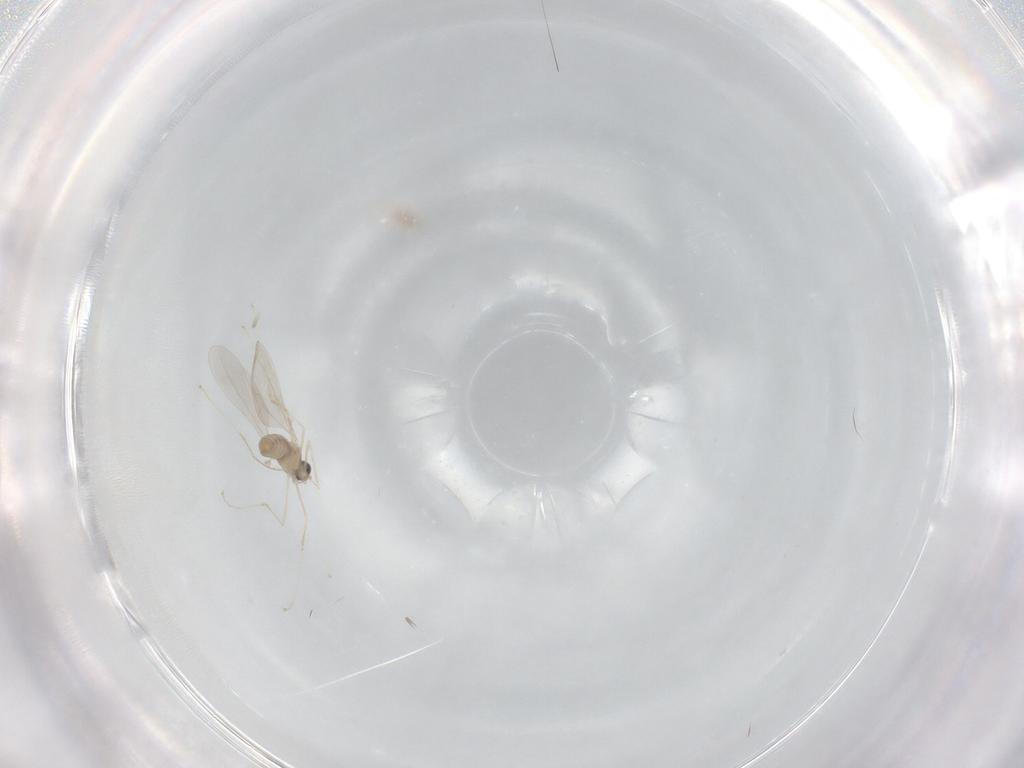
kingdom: Animalia
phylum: Arthropoda
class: Insecta
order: Diptera
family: Cecidomyiidae
